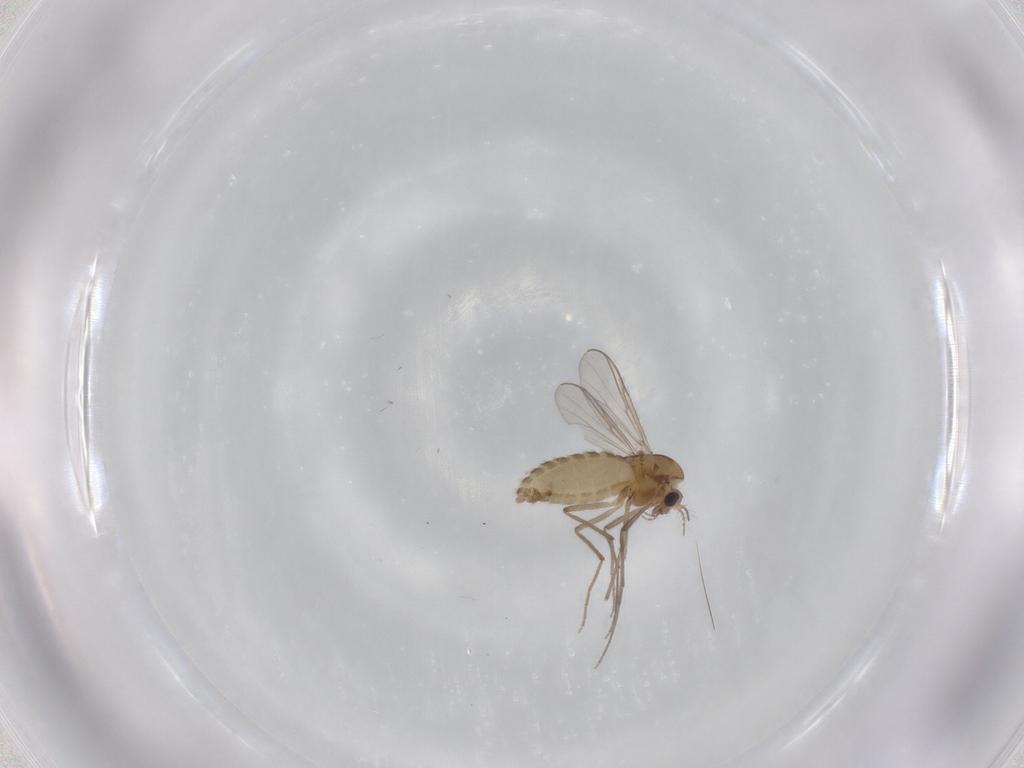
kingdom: Animalia
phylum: Arthropoda
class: Insecta
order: Diptera
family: Chironomidae
